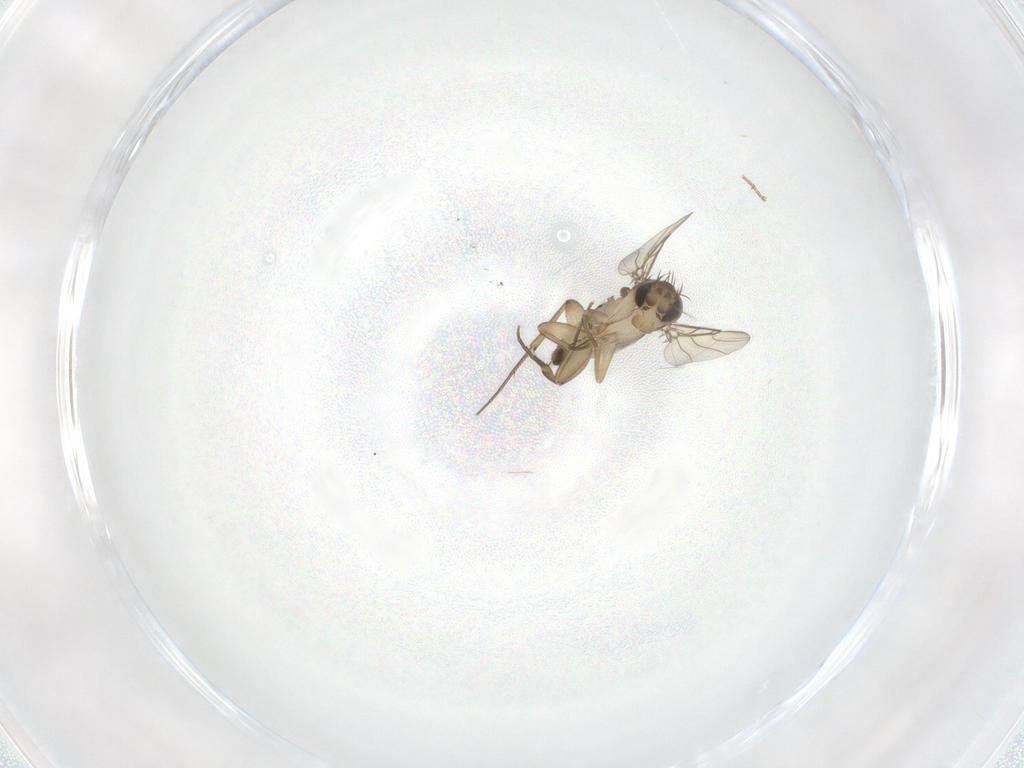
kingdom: Animalia
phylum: Arthropoda
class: Insecta
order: Diptera
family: Phoridae
